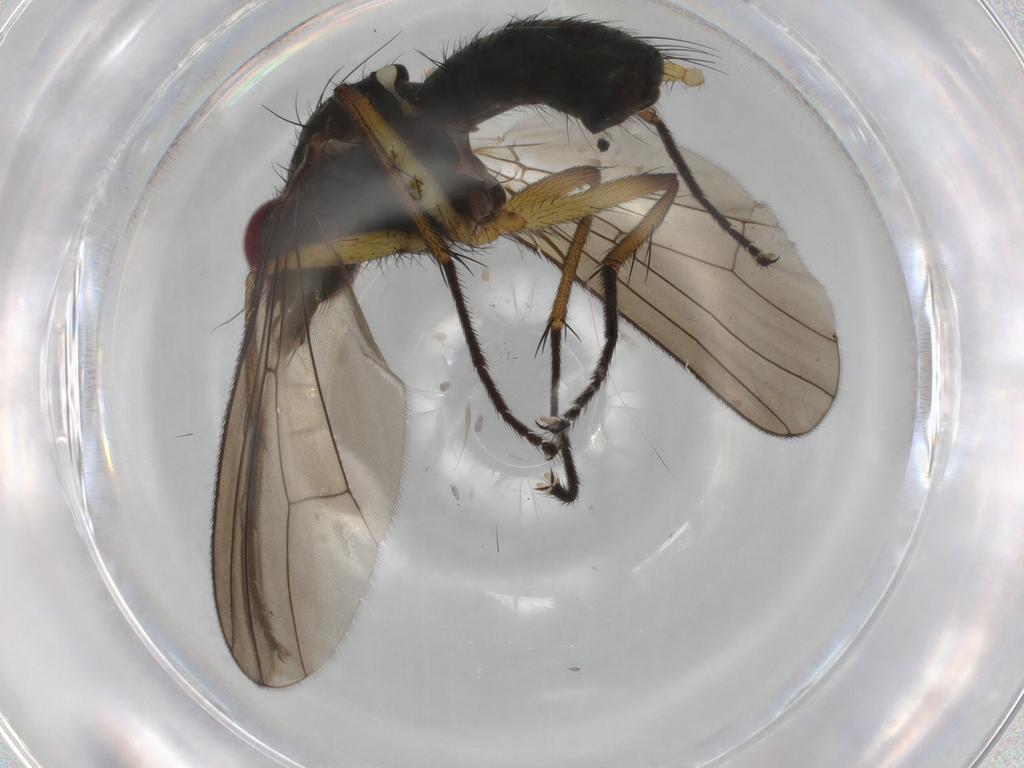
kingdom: Animalia
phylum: Arthropoda
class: Insecta
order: Diptera
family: Muscidae
